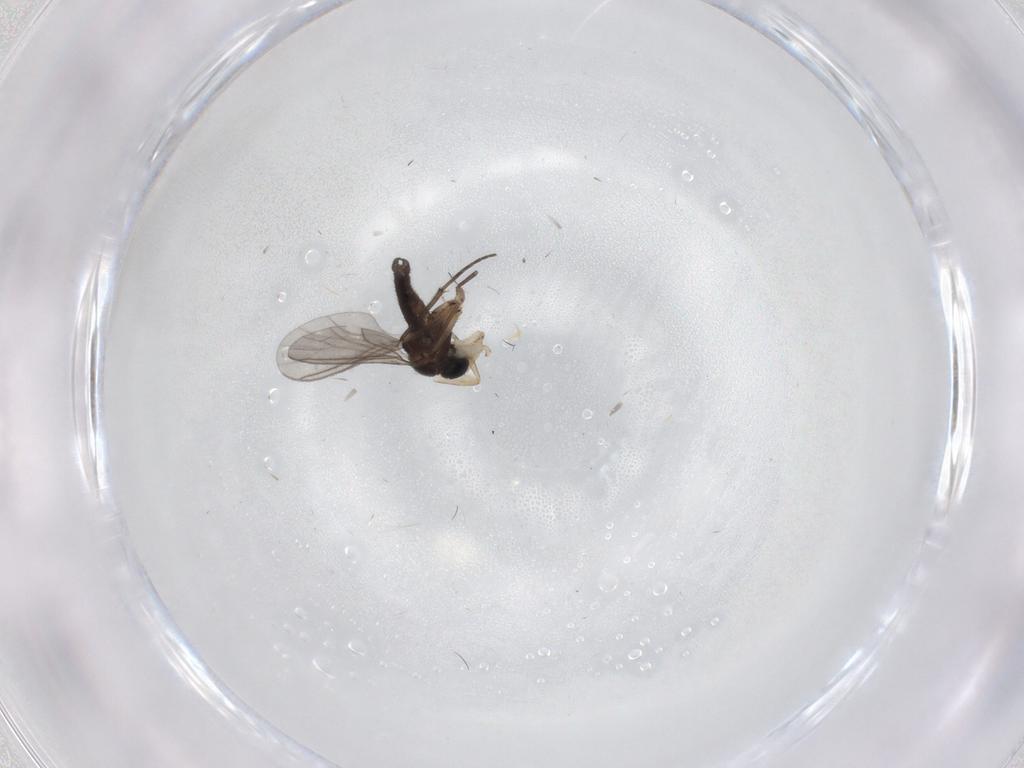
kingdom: Animalia
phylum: Arthropoda
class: Insecta
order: Diptera
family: Sciaridae
